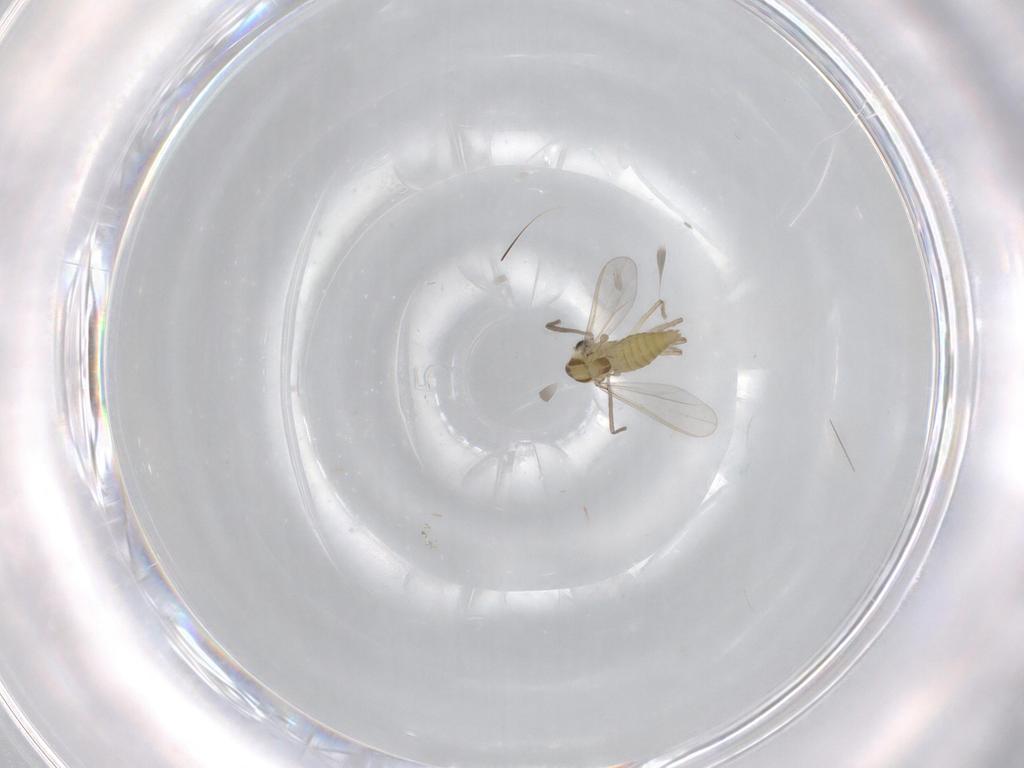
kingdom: Animalia
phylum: Arthropoda
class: Insecta
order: Diptera
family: Chironomidae
